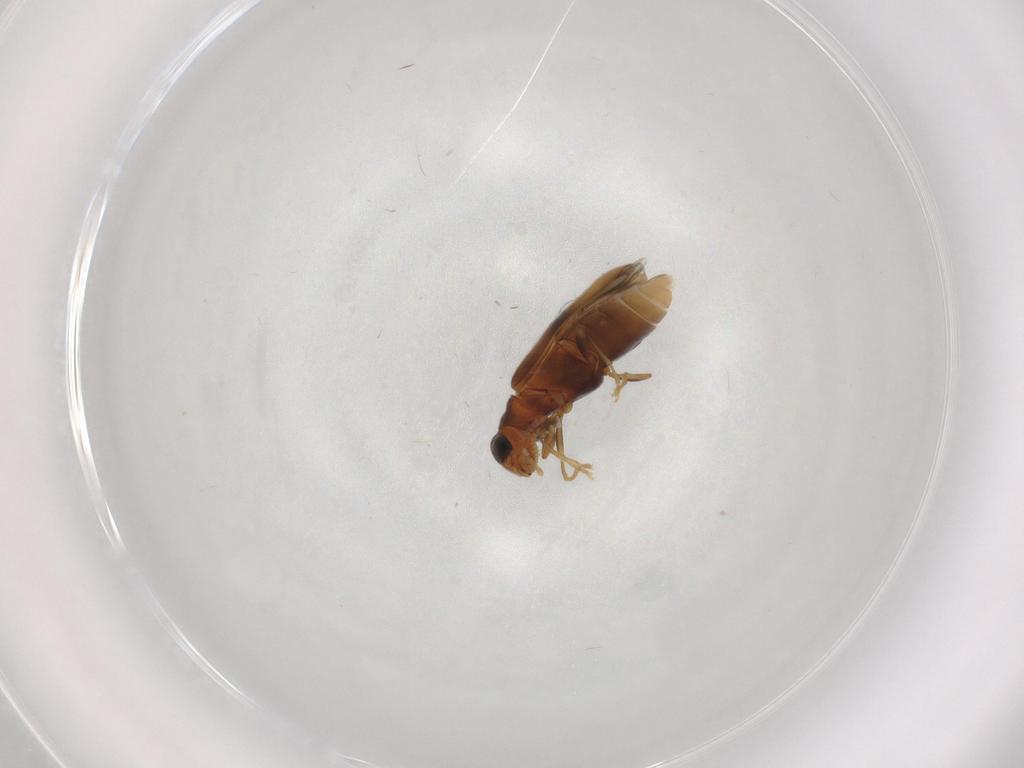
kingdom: Animalia
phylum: Arthropoda
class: Insecta
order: Coleoptera
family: Mycteridae
